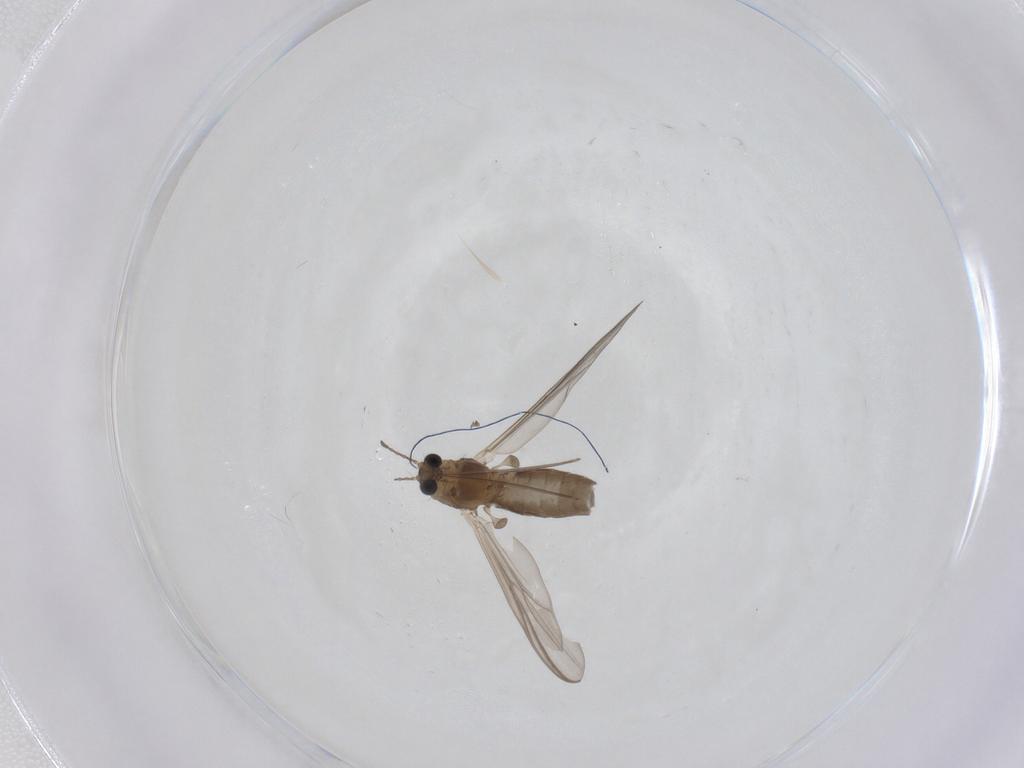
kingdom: Animalia
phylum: Arthropoda
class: Insecta
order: Diptera
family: Chironomidae
